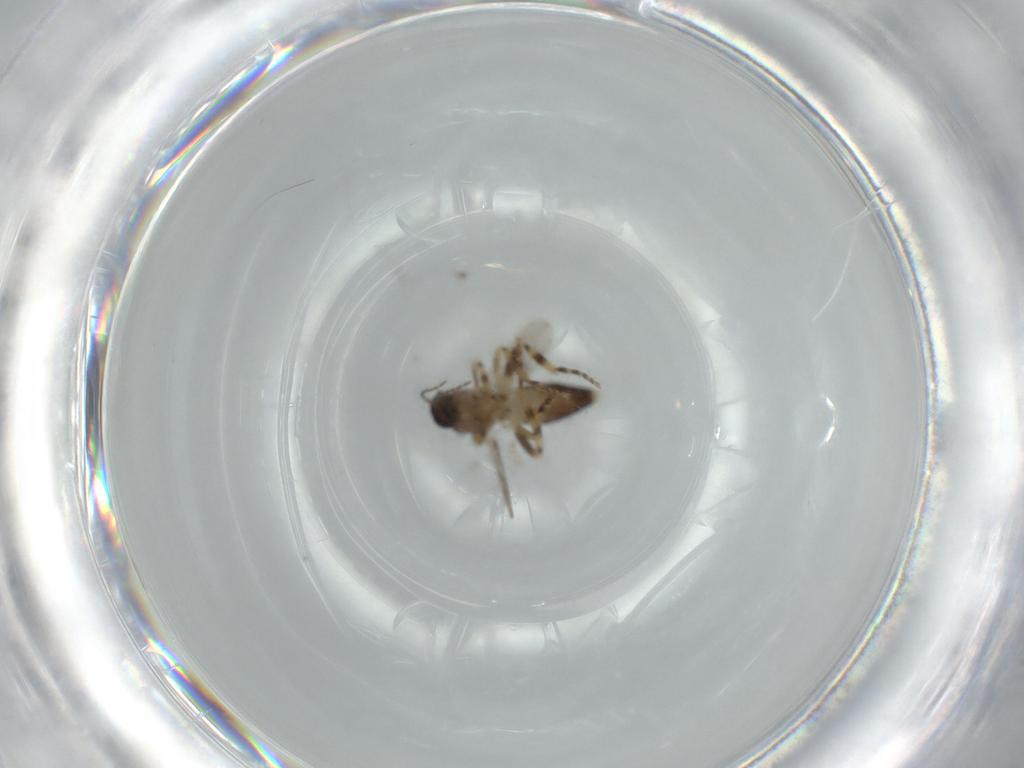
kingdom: Animalia
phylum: Arthropoda
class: Insecta
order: Diptera
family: Cecidomyiidae
